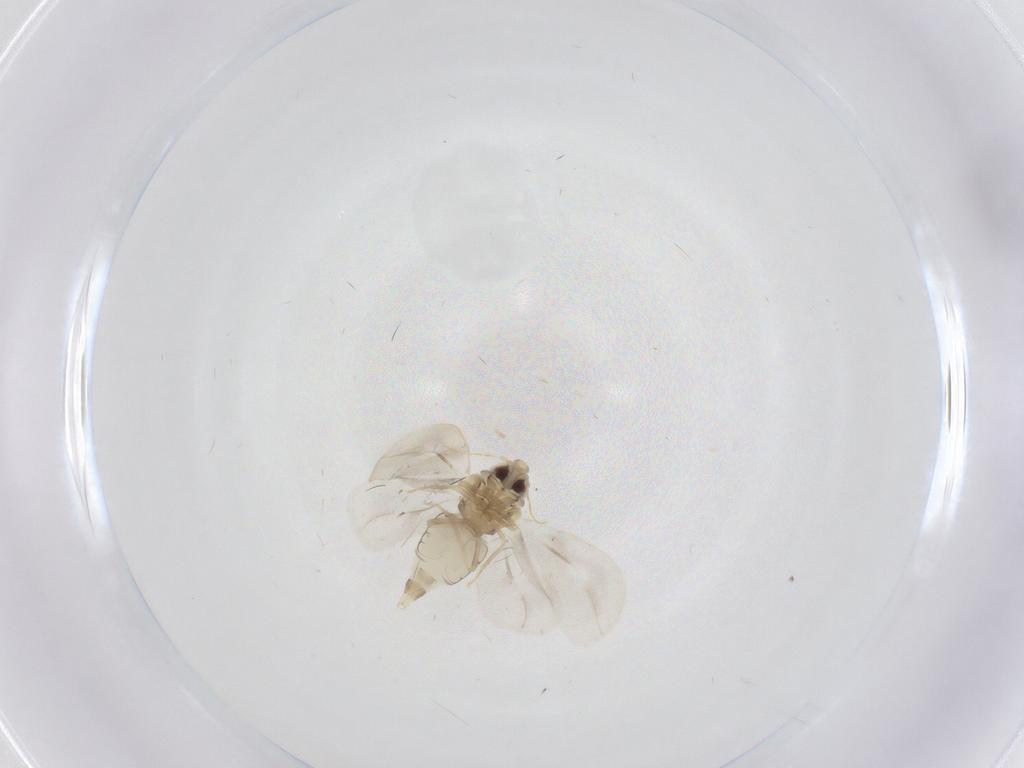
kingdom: Animalia
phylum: Arthropoda
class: Insecta
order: Hemiptera
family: Aleyrodidae
